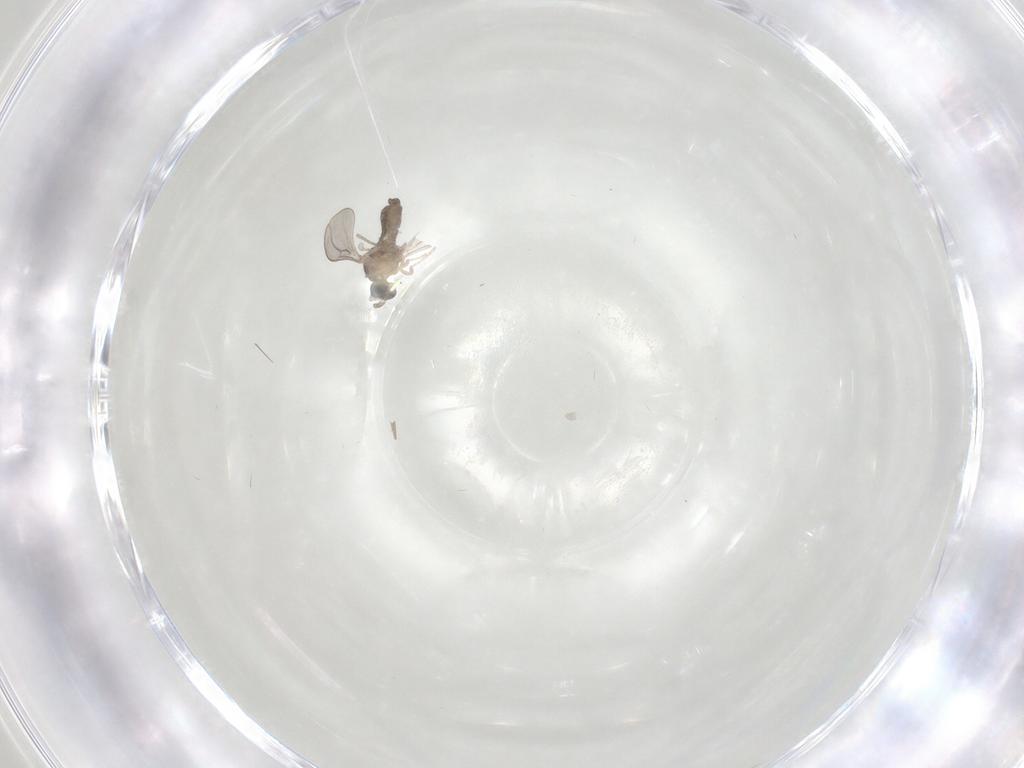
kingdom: Animalia
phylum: Arthropoda
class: Insecta
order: Diptera
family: Cecidomyiidae
